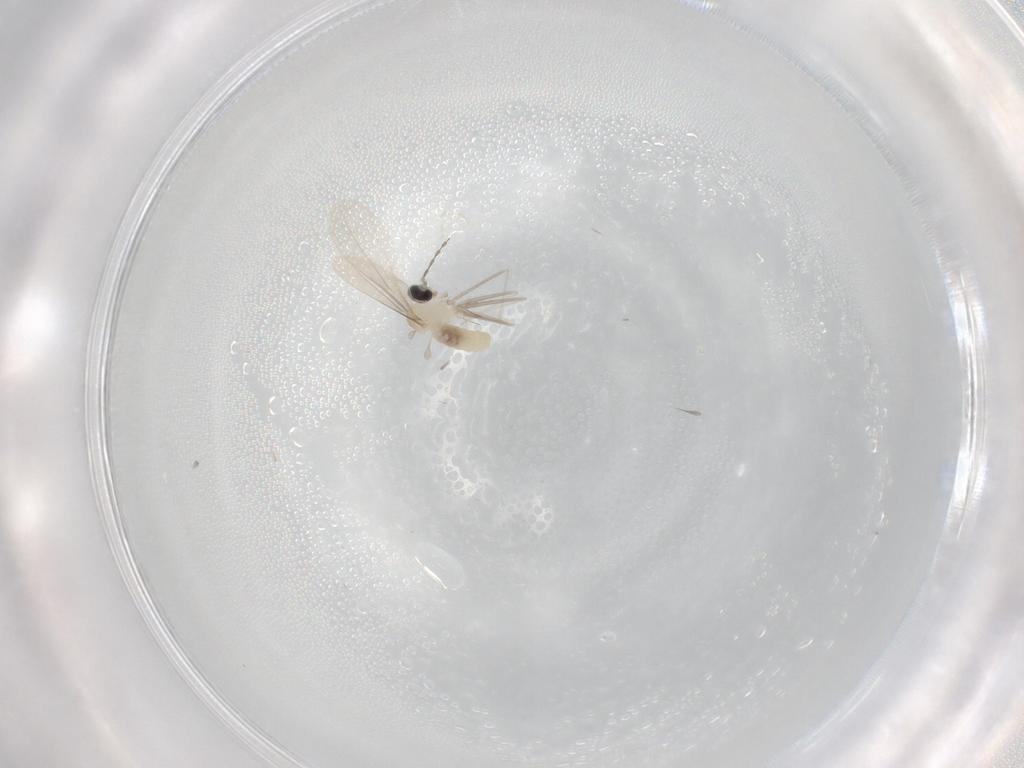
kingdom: Animalia
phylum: Arthropoda
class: Insecta
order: Diptera
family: Cecidomyiidae
